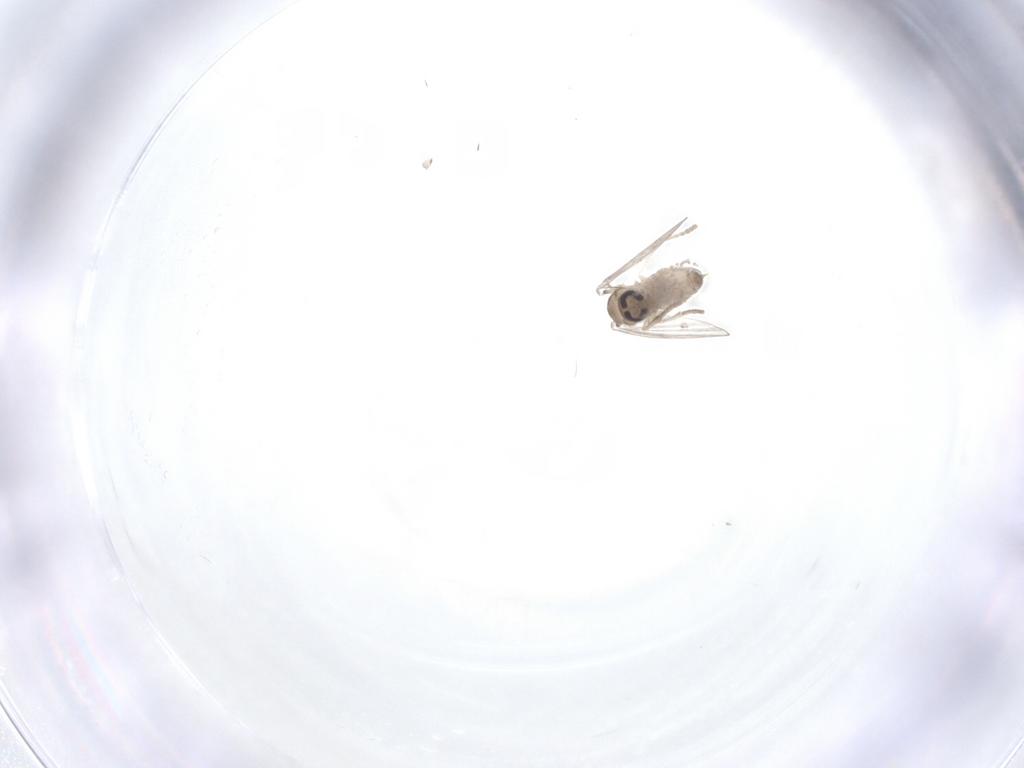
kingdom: Animalia
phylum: Arthropoda
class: Insecta
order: Diptera
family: Psychodidae
